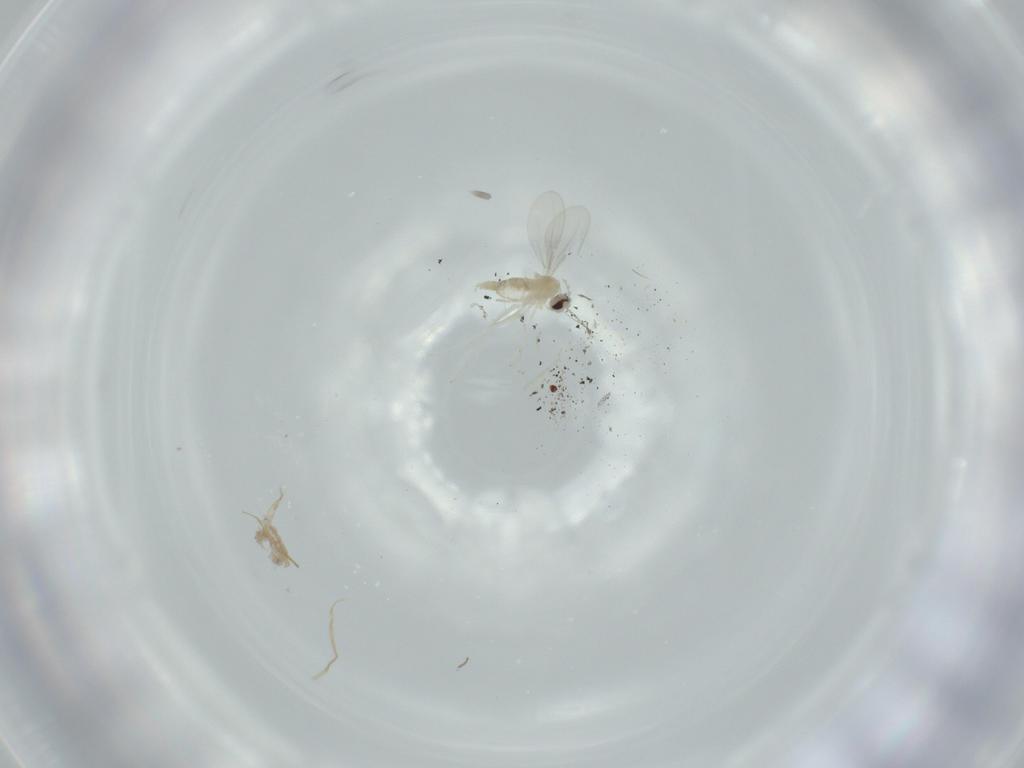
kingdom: Animalia
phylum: Arthropoda
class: Insecta
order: Diptera
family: Cecidomyiidae
